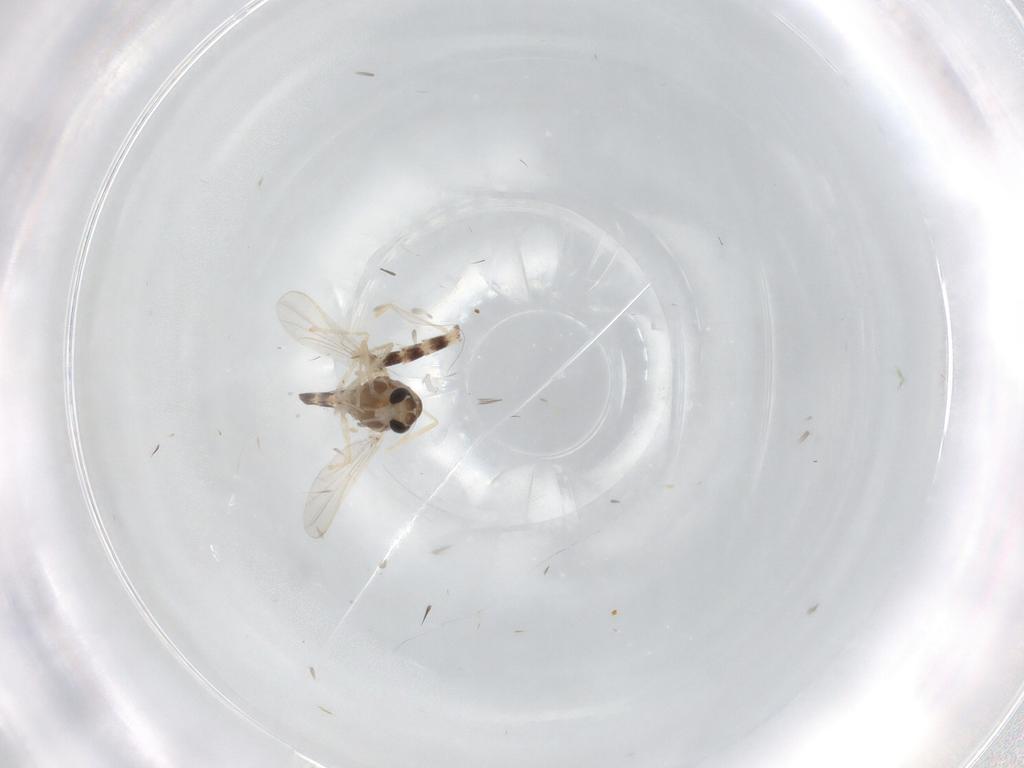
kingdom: Animalia
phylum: Arthropoda
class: Insecta
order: Diptera
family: Chironomidae
